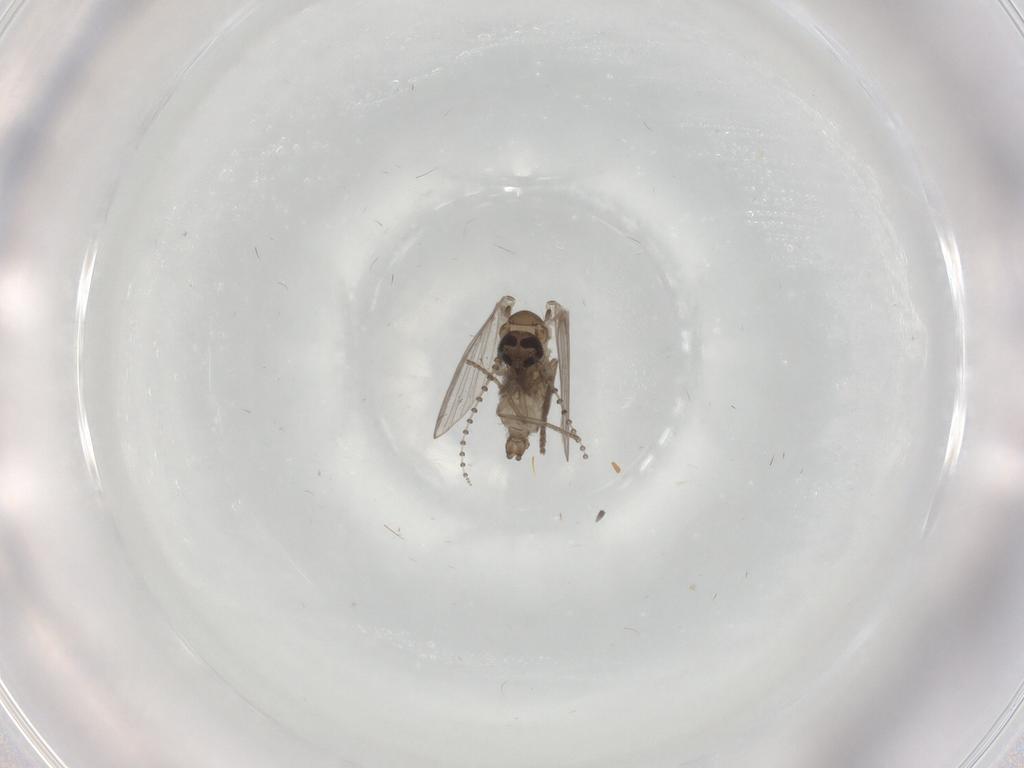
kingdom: Animalia
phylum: Arthropoda
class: Insecta
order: Diptera
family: Psychodidae
